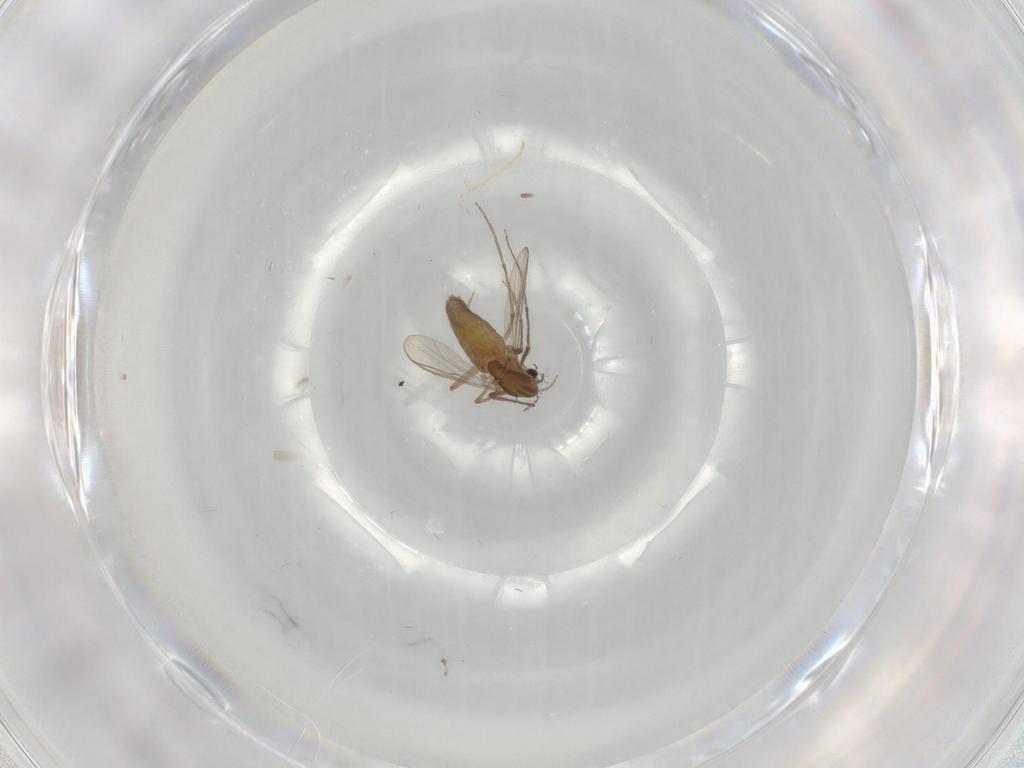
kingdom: Animalia
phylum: Arthropoda
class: Insecta
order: Diptera
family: Chironomidae
